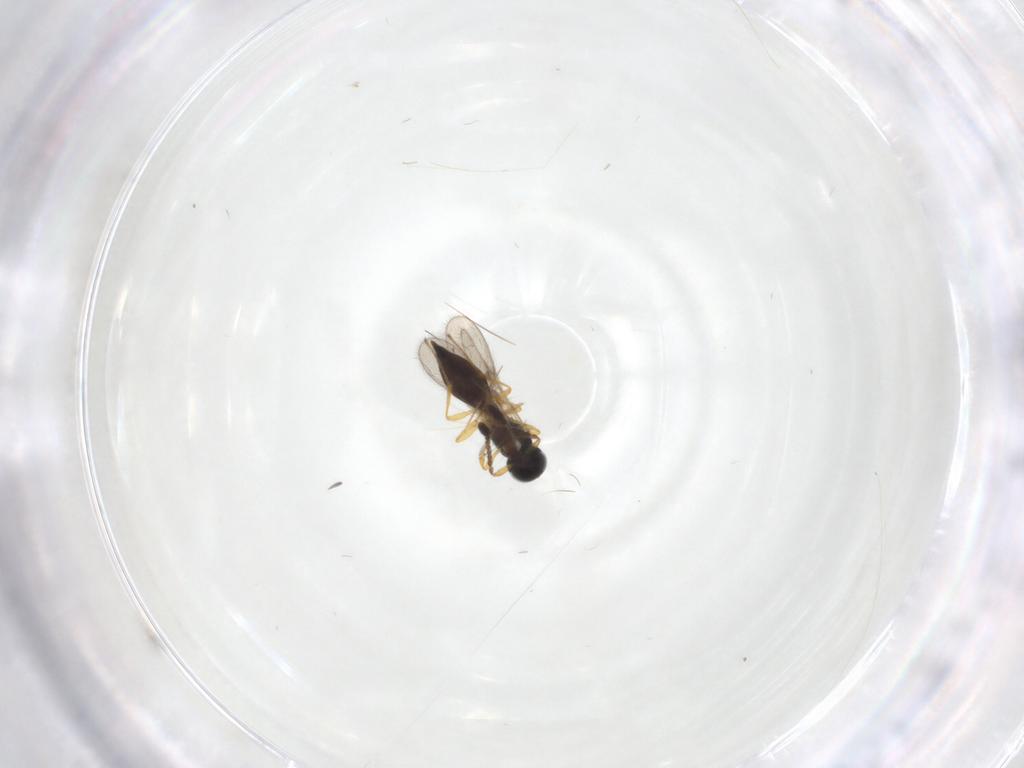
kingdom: Animalia
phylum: Arthropoda
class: Insecta
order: Hymenoptera
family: Scelionidae
